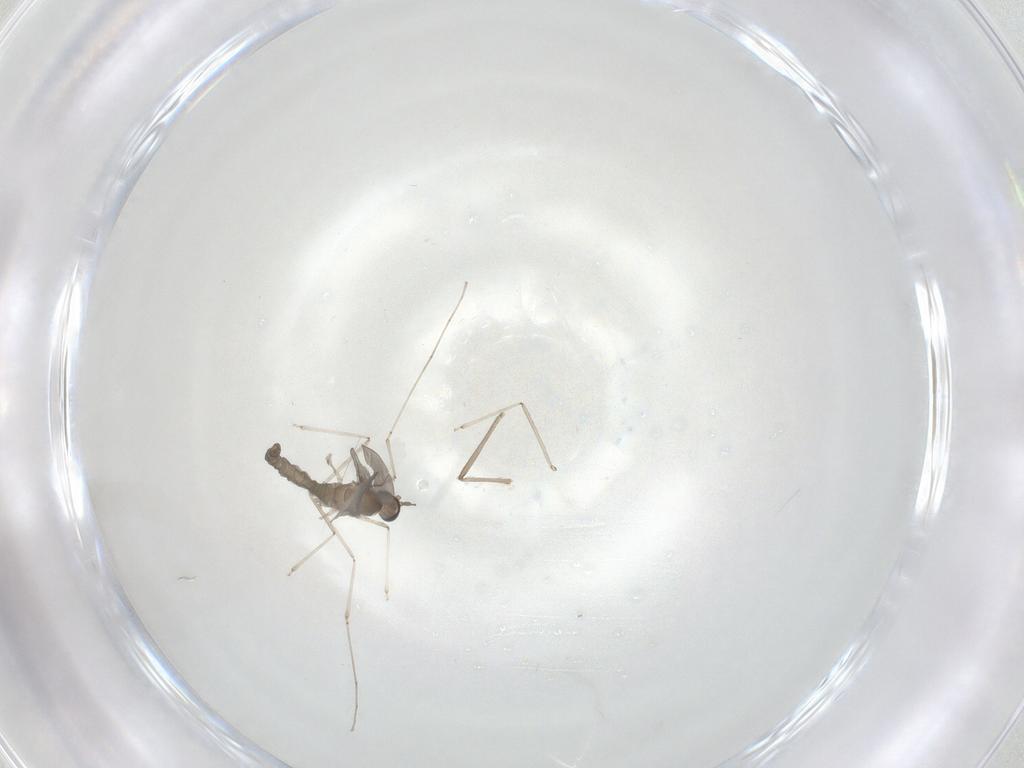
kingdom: Animalia
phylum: Arthropoda
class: Insecta
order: Diptera
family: Chironomidae
